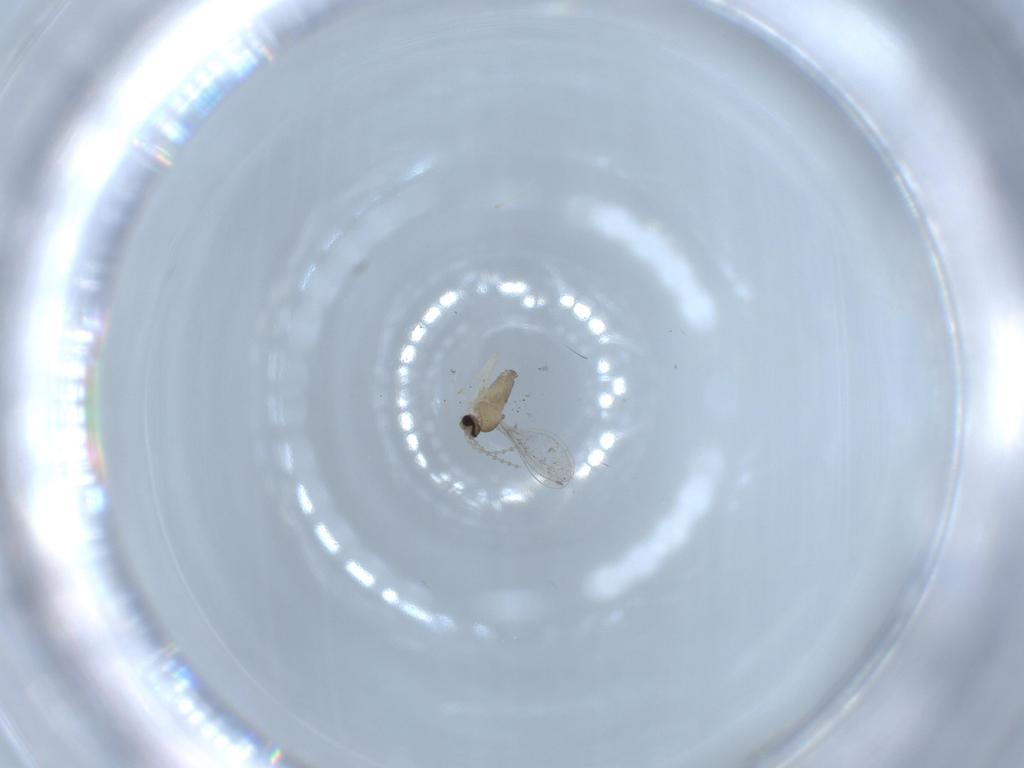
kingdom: Animalia
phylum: Arthropoda
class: Insecta
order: Diptera
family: Cecidomyiidae
